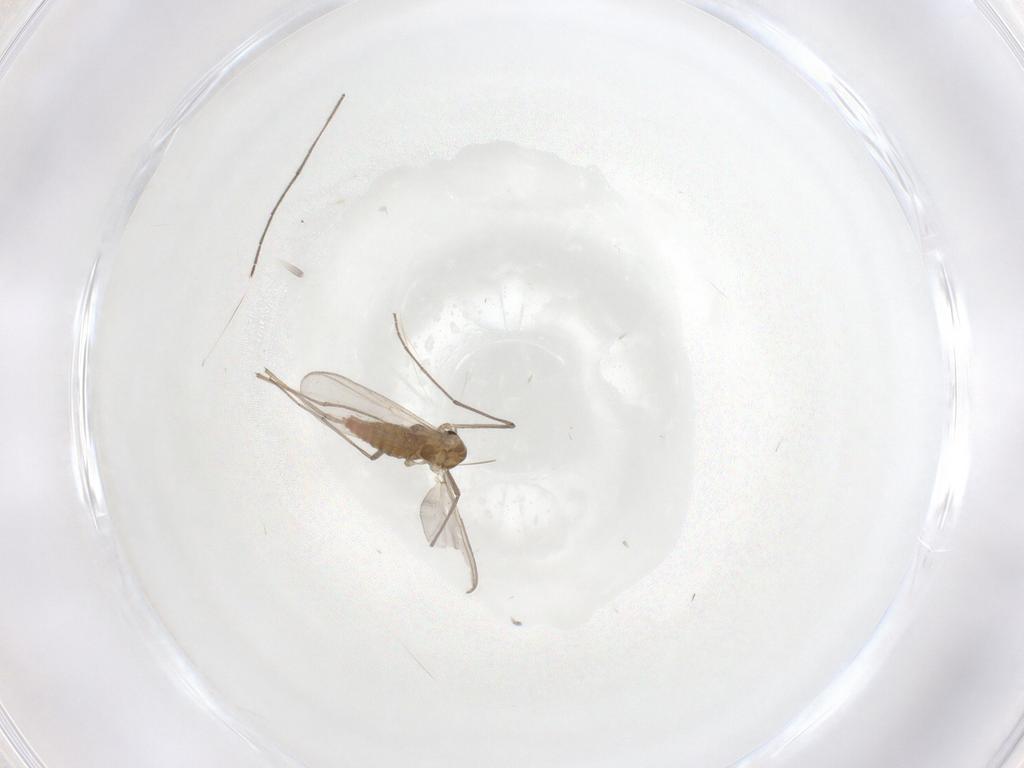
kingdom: Animalia
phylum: Arthropoda
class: Insecta
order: Diptera
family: Chironomidae
